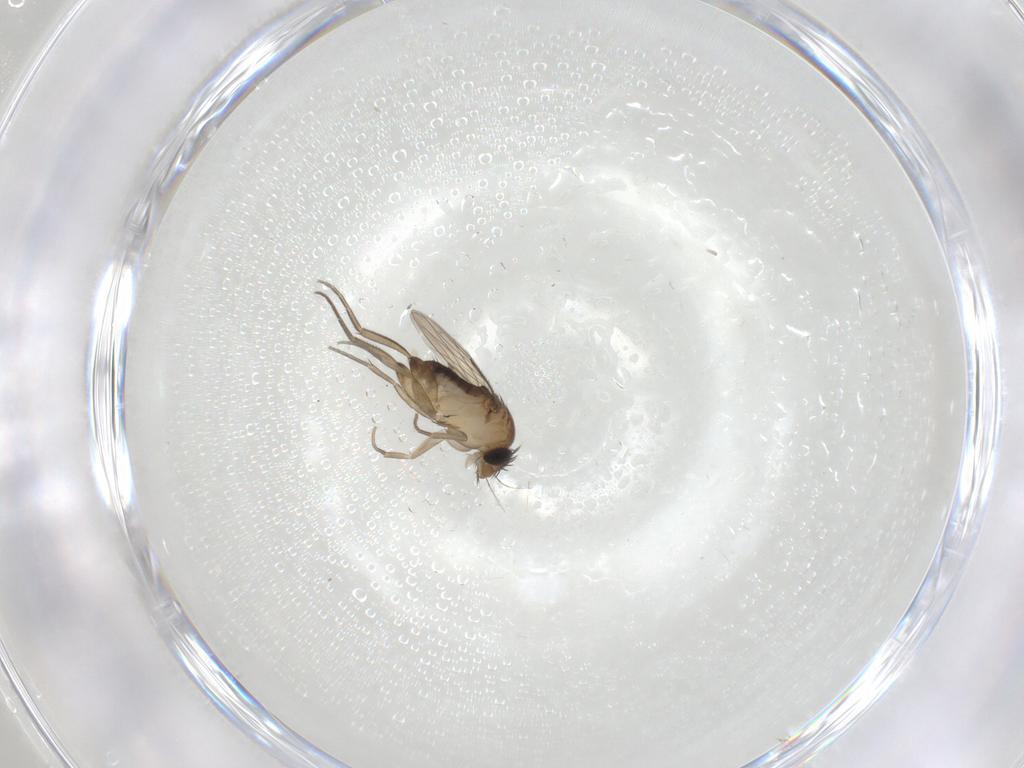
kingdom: Animalia
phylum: Arthropoda
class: Insecta
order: Diptera
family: Phoridae
